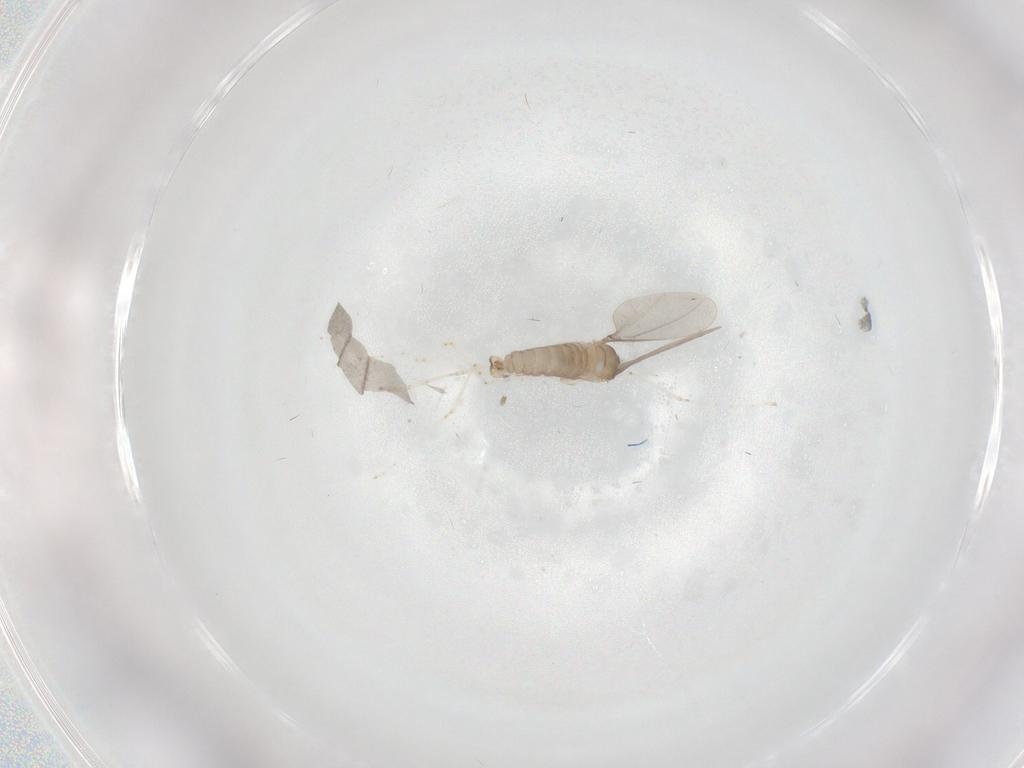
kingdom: Animalia
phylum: Arthropoda
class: Insecta
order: Diptera
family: Cecidomyiidae
